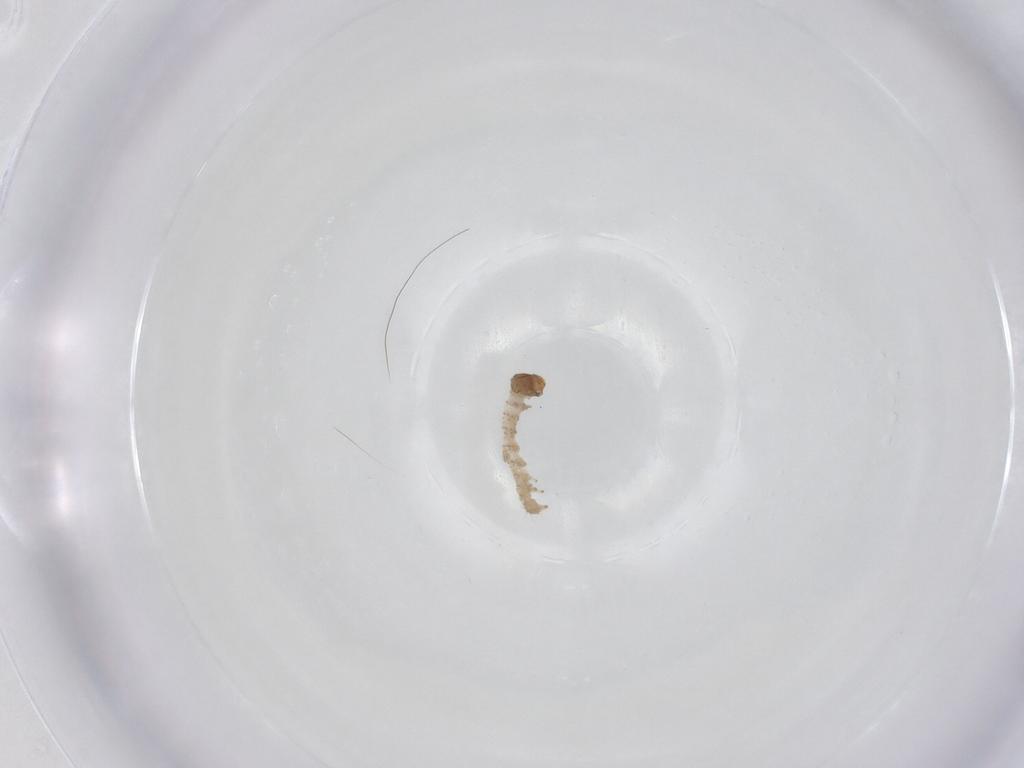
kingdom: Animalia
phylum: Arthropoda
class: Insecta
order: Lepidoptera
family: Erebidae
